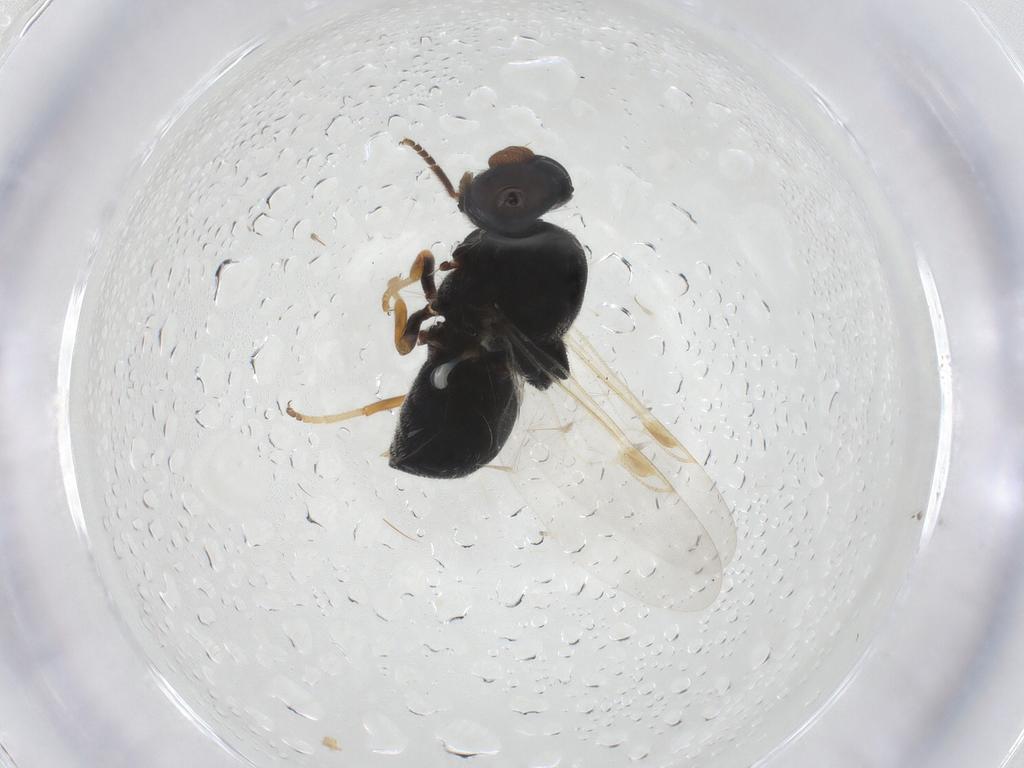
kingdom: Animalia
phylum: Arthropoda
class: Insecta
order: Diptera
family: Stratiomyidae
